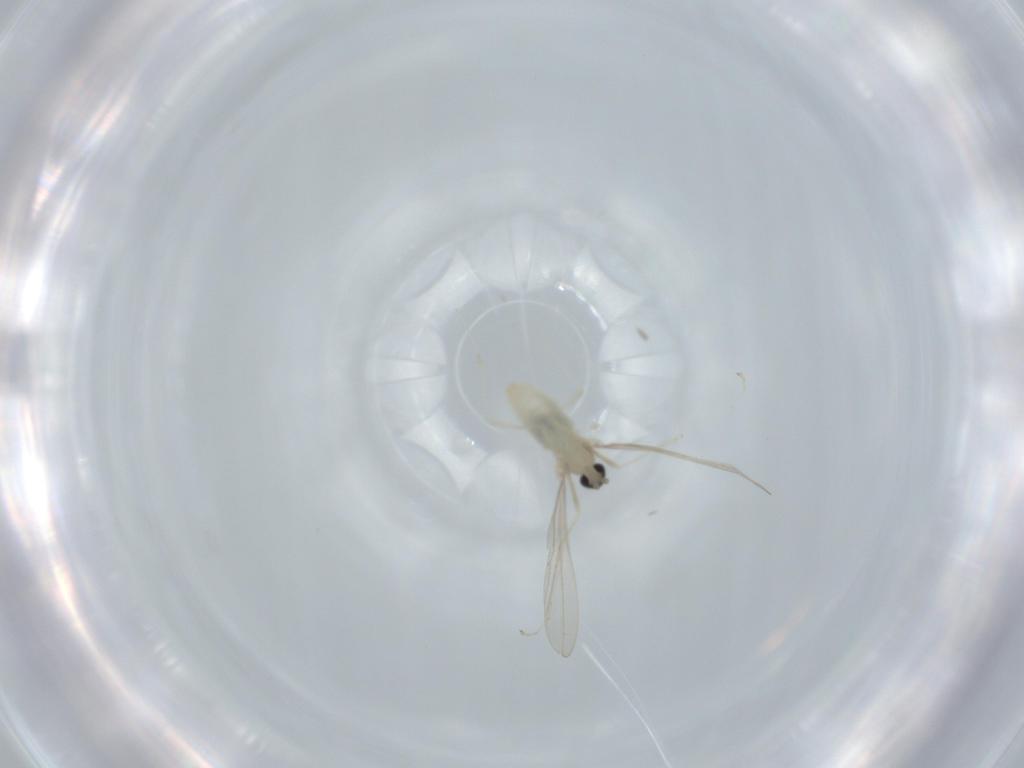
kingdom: Animalia
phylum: Arthropoda
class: Insecta
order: Diptera
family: Cecidomyiidae
